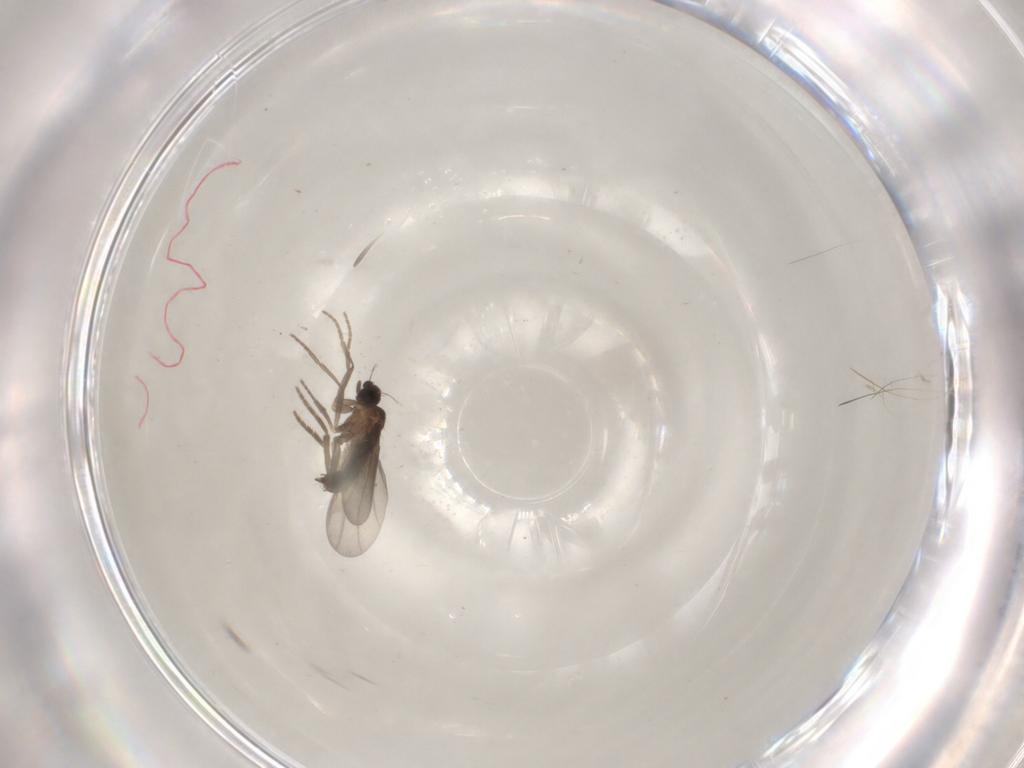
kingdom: Animalia
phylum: Arthropoda
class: Insecta
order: Diptera
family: Phoridae
